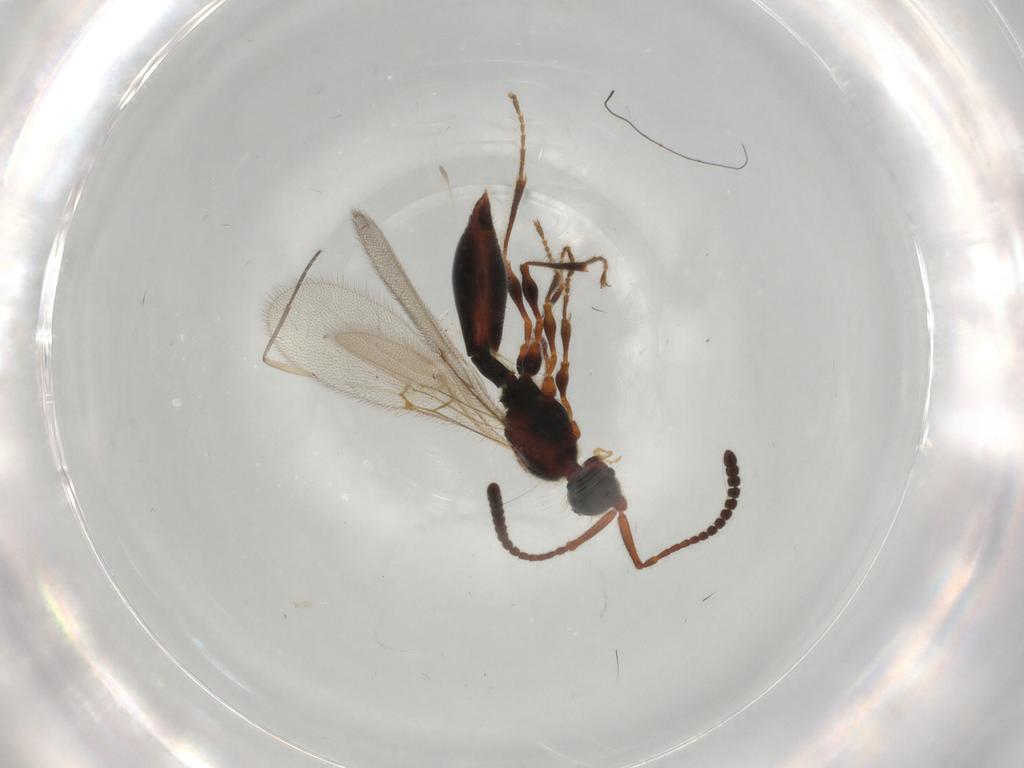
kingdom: Animalia
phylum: Arthropoda
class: Insecta
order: Hymenoptera
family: Diapriidae
